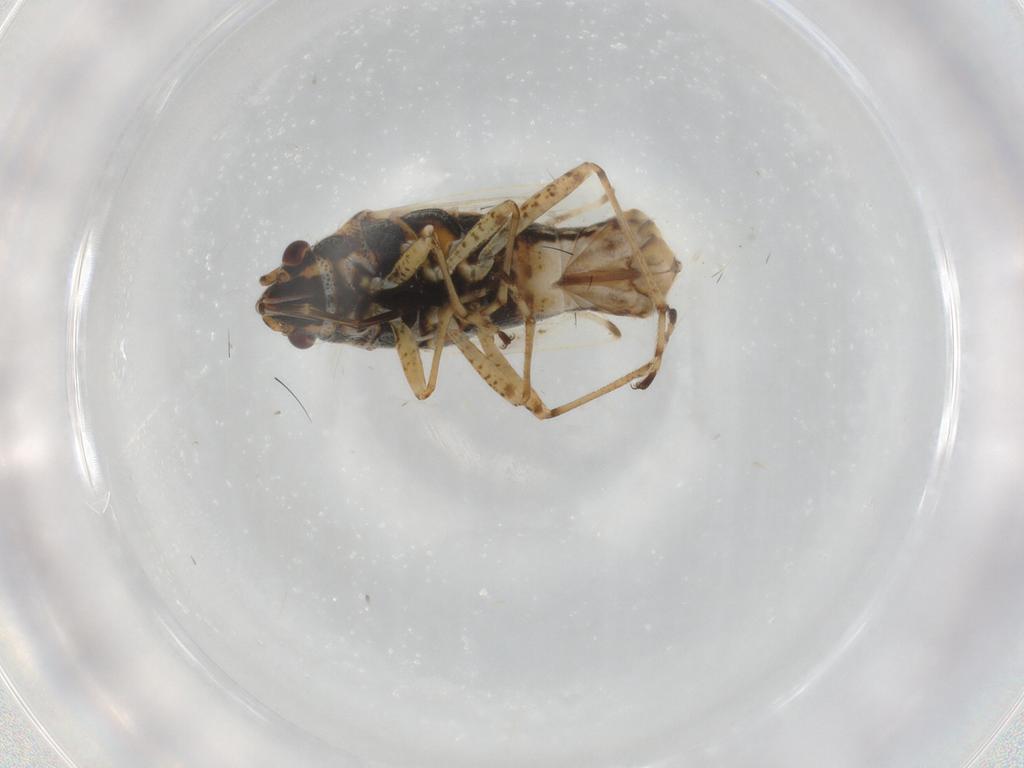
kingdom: Animalia
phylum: Arthropoda
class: Insecta
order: Hemiptera
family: Lygaeidae
